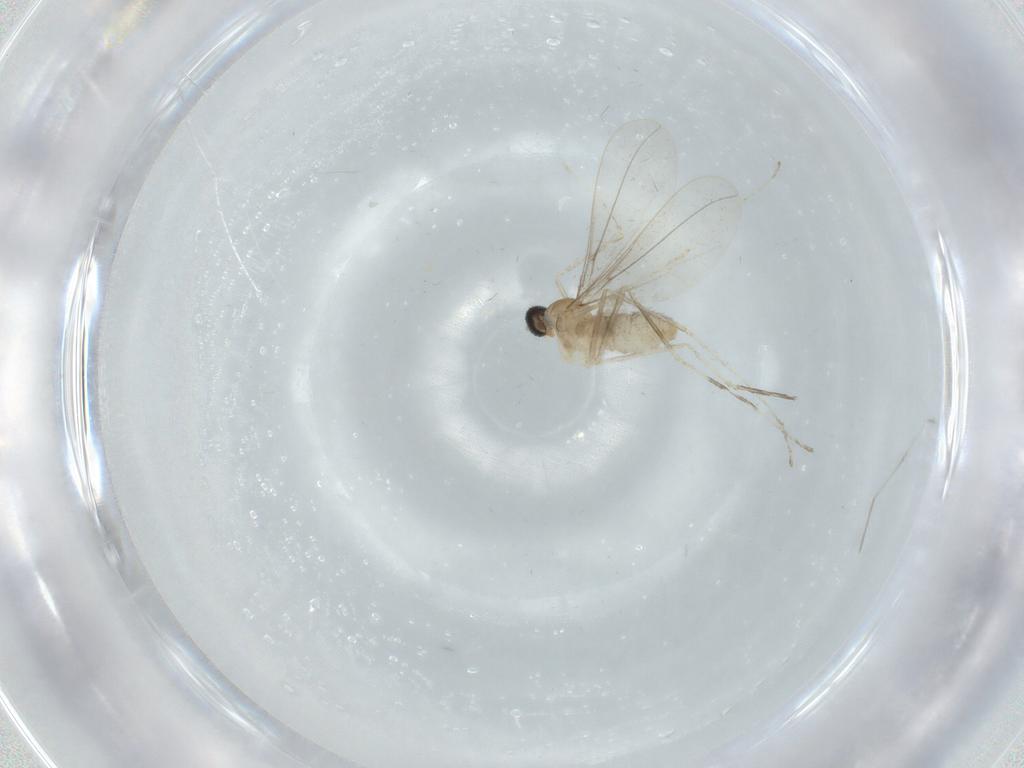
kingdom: Animalia
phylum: Arthropoda
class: Insecta
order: Diptera
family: Cecidomyiidae
